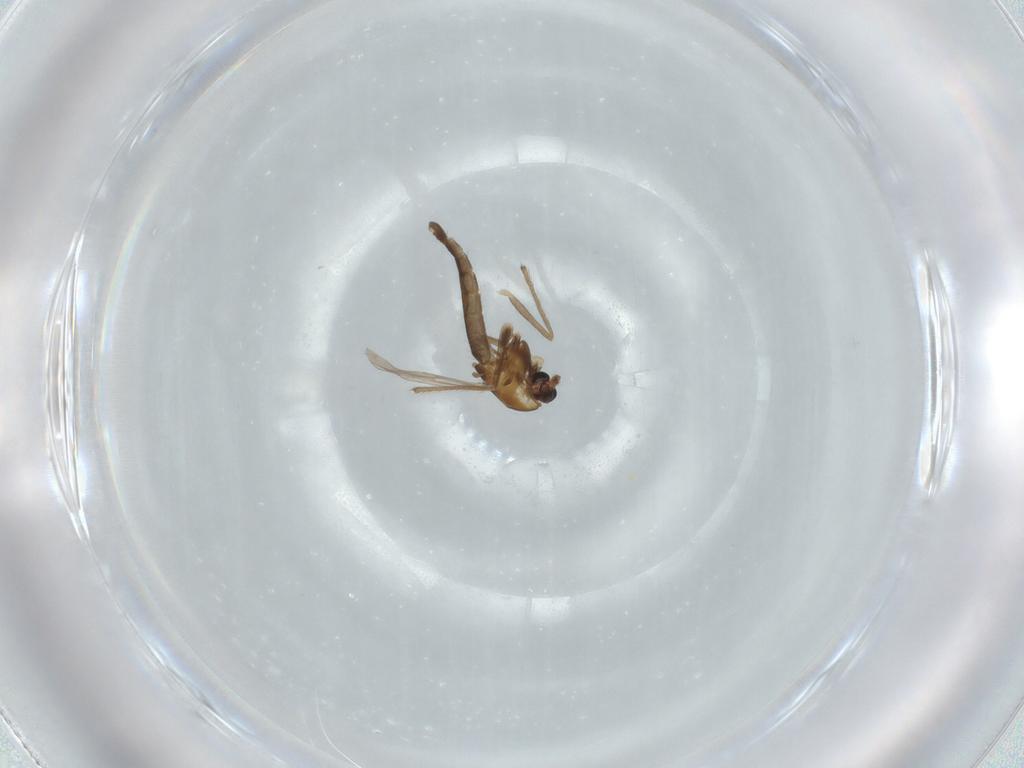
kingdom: Animalia
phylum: Arthropoda
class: Insecta
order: Diptera
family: Chironomidae
